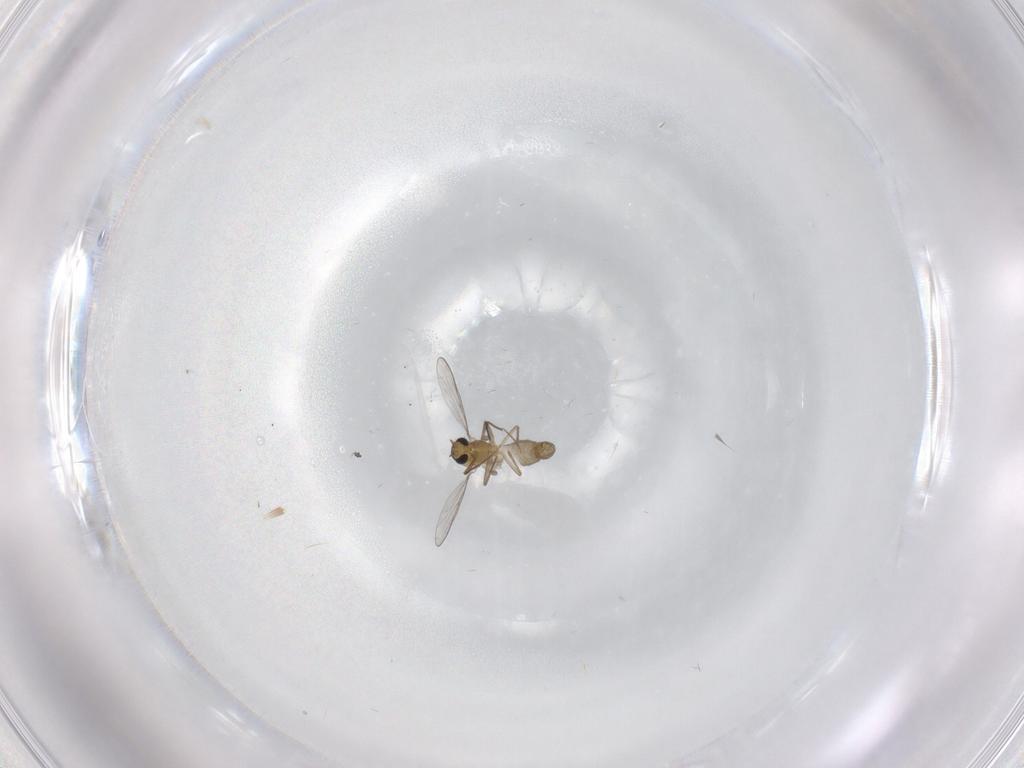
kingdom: Animalia
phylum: Arthropoda
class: Insecta
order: Diptera
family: Chironomidae
